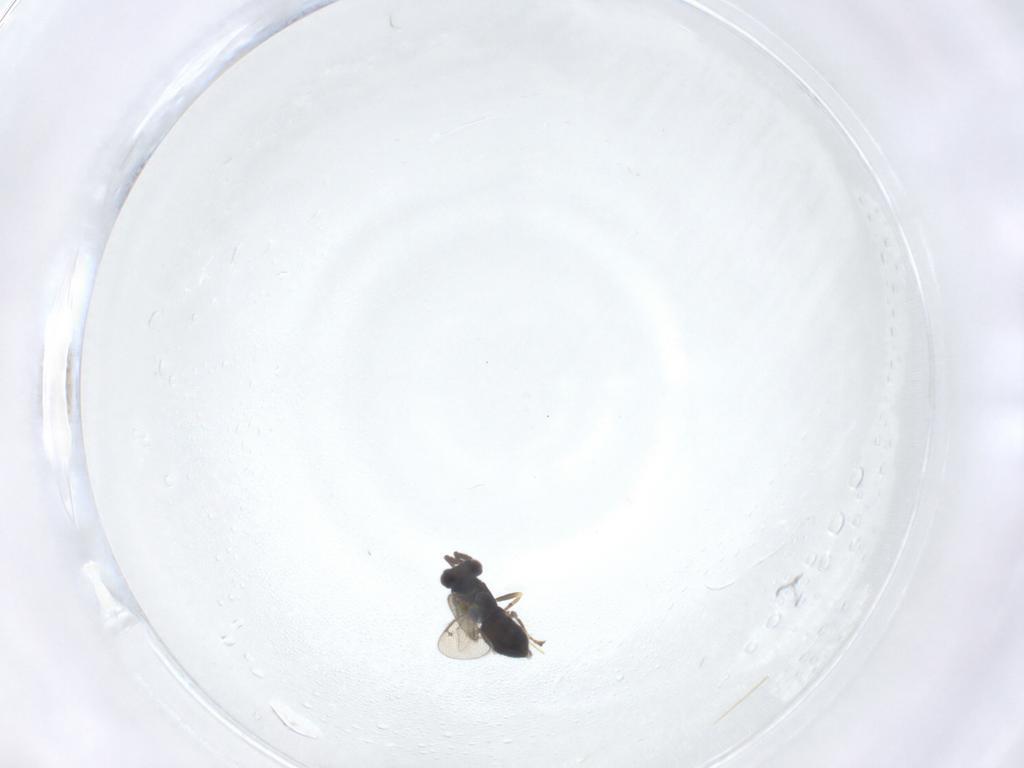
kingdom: Animalia
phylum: Arthropoda
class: Insecta
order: Hymenoptera
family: Eulophidae
